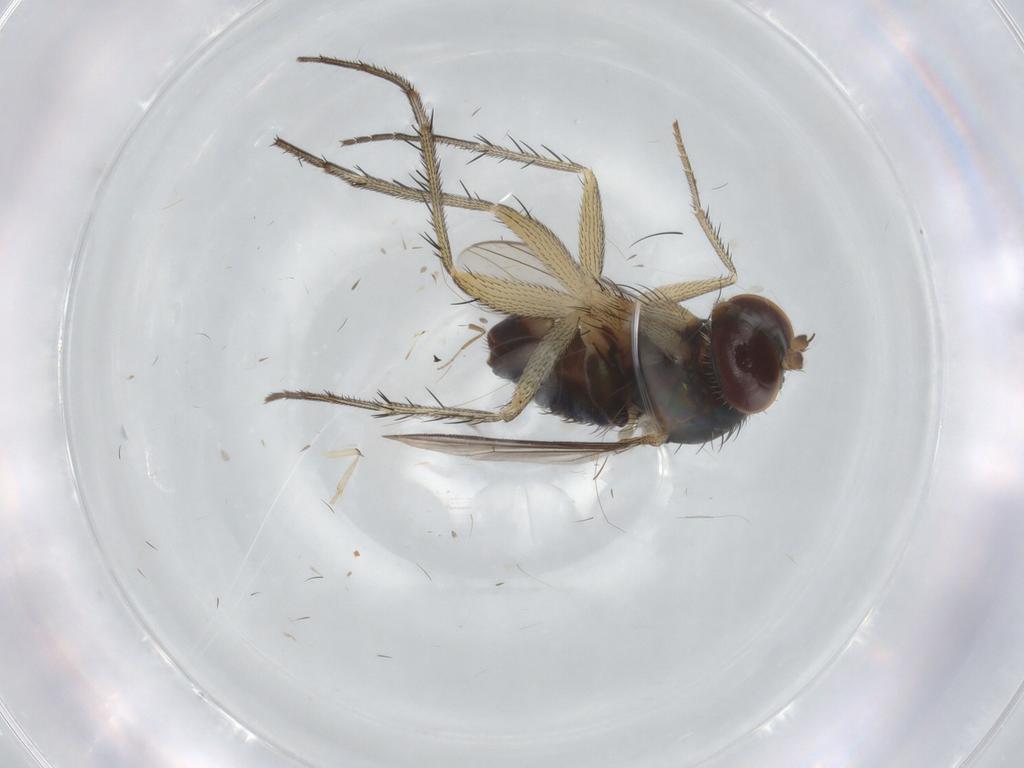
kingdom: Animalia
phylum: Arthropoda
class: Insecta
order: Diptera
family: Dolichopodidae
